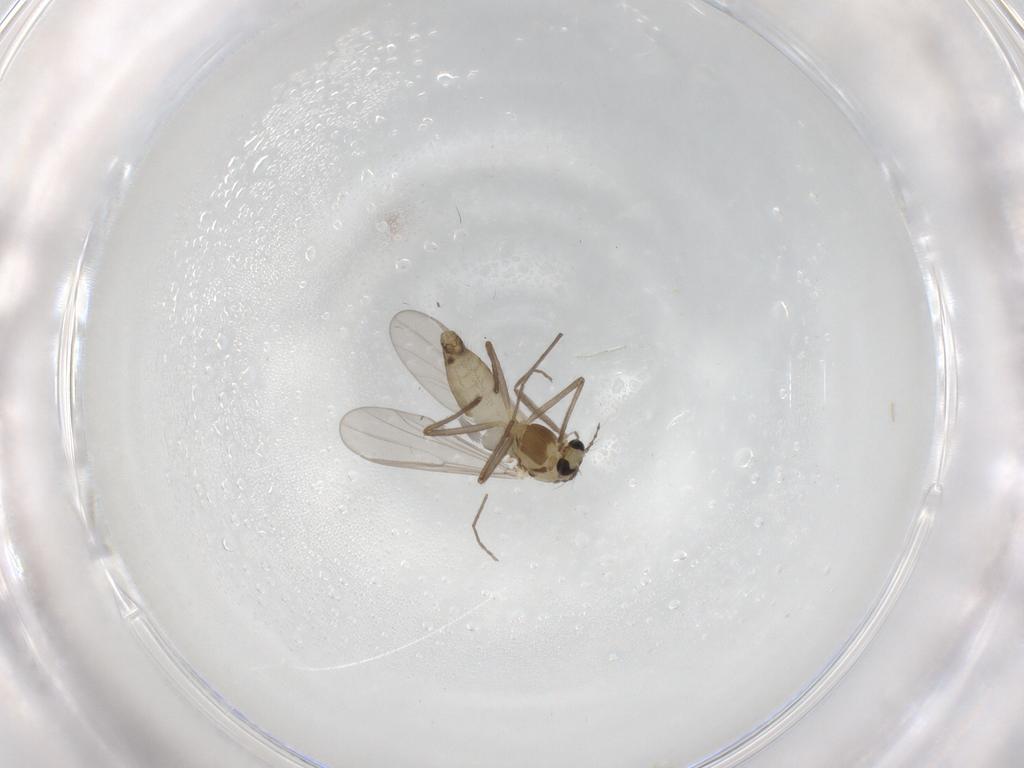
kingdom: Animalia
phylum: Arthropoda
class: Insecta
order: Diptera
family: Chironomidae
